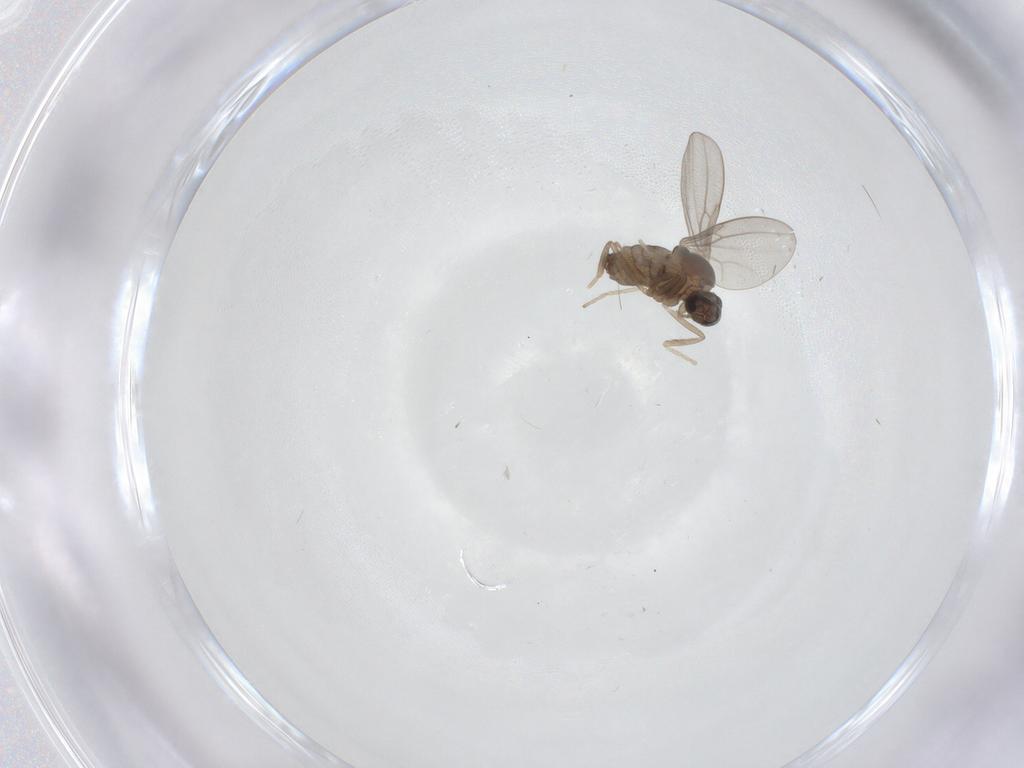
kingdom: Animalia
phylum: Arthropoda
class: Insecta
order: Diptera
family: Cecidomyiidae
